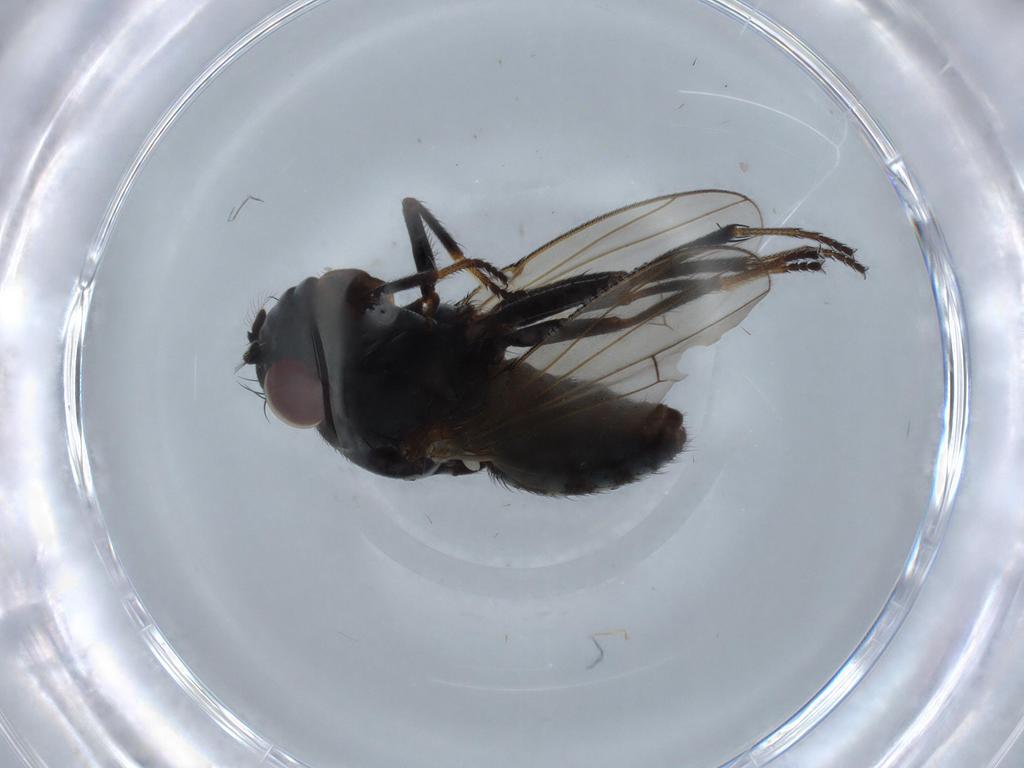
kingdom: Animalia
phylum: Arthropoda
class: Insecta
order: Diptera
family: Ephydridae
